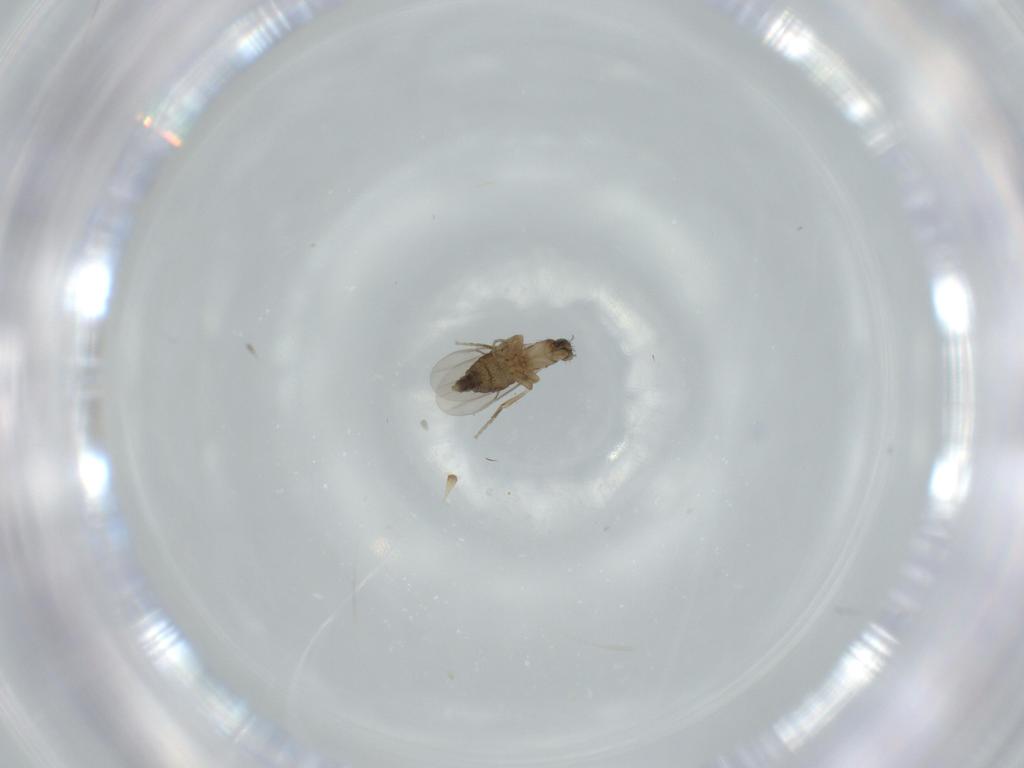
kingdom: Animalia
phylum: Arthropoda
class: Insecta
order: Diptera
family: Phoridae
